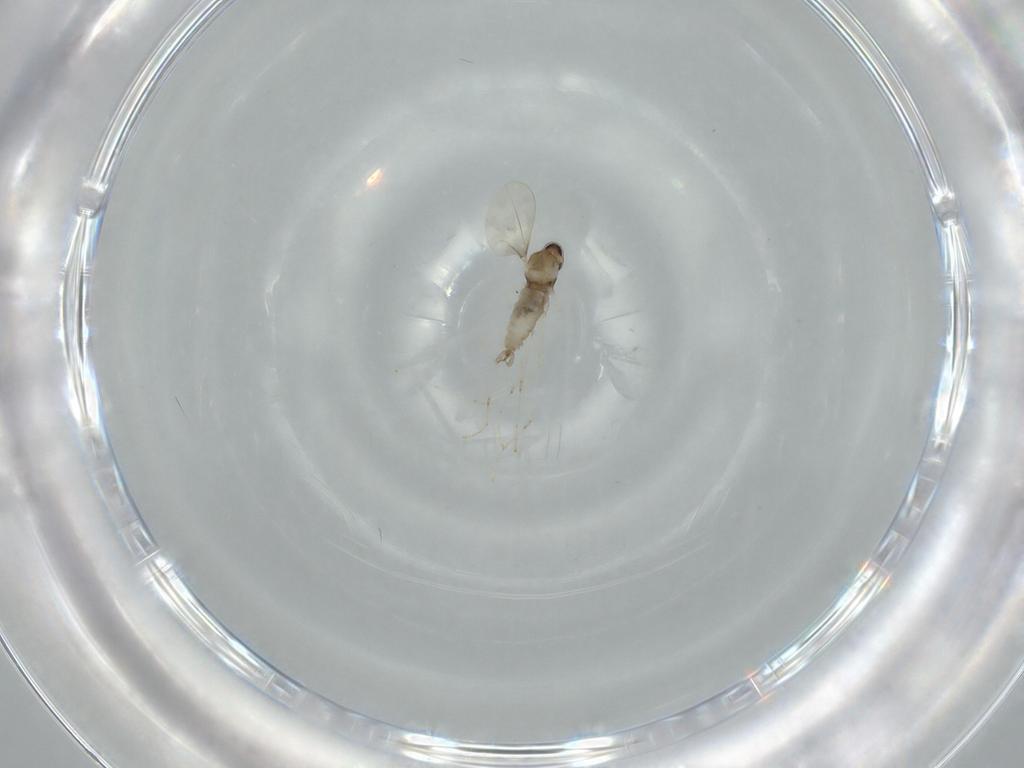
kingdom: Animalia
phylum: Arthropoda
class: Insecta
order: Diptera
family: Cecidomyiidae
